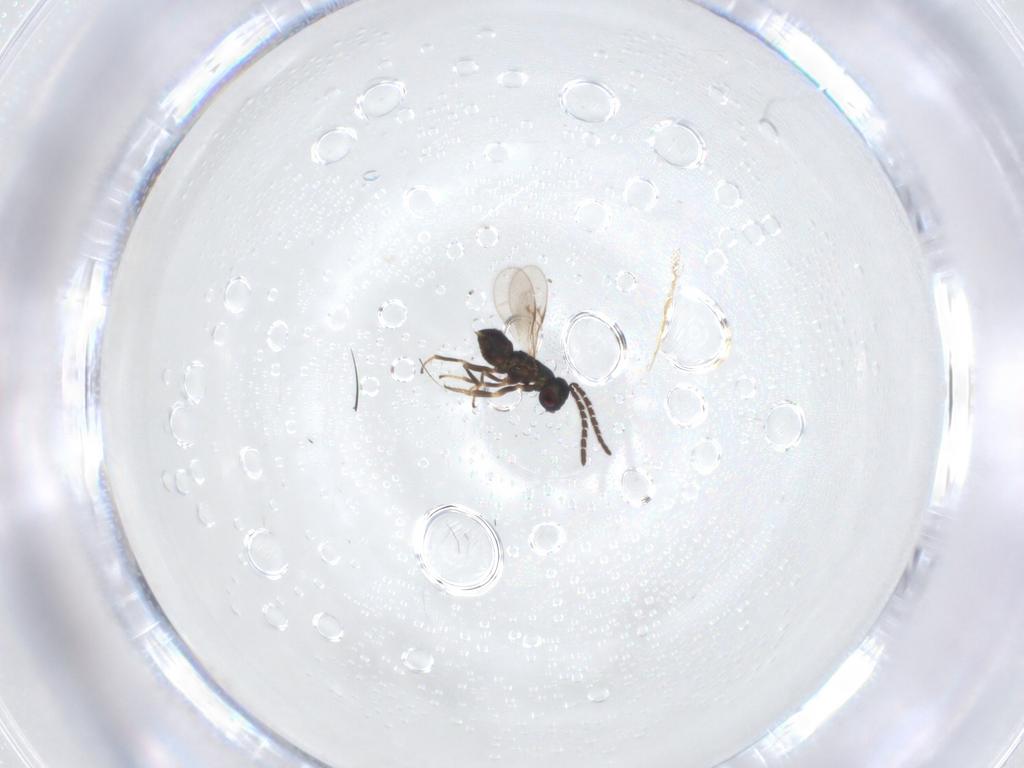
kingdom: Animalia
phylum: Arthropoda
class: Insecta
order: Hymenoptera
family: Encyrtidae
